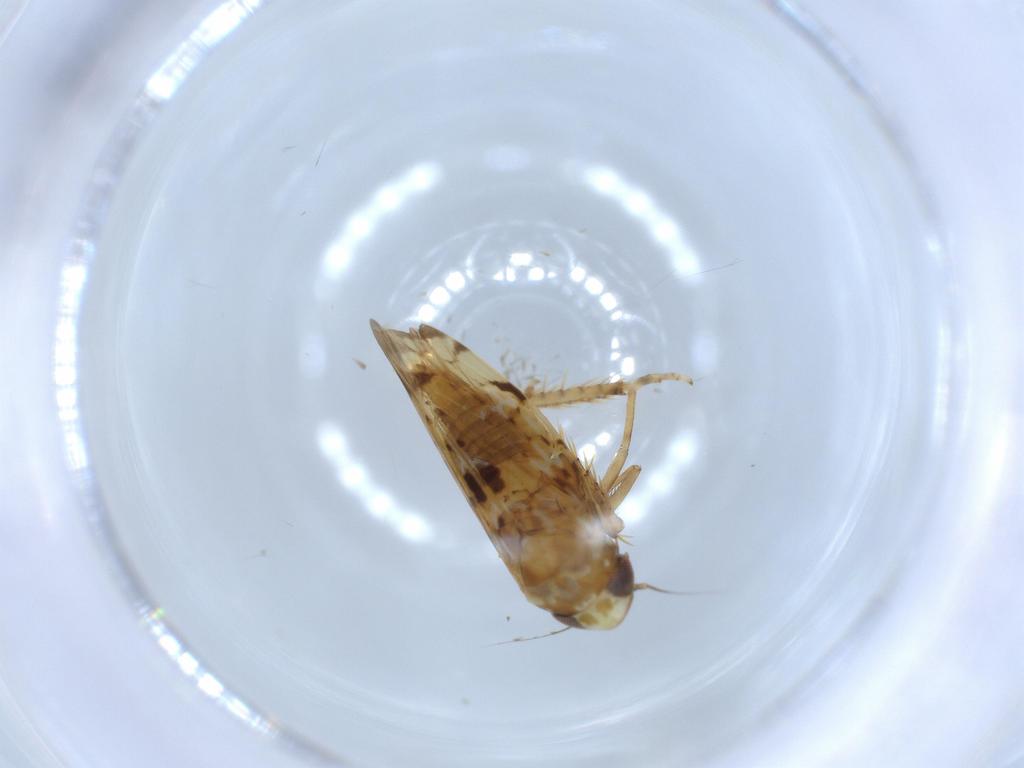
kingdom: Animalia
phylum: Arthropoda
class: Insecta
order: Hemiptera
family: Cicadellidae
